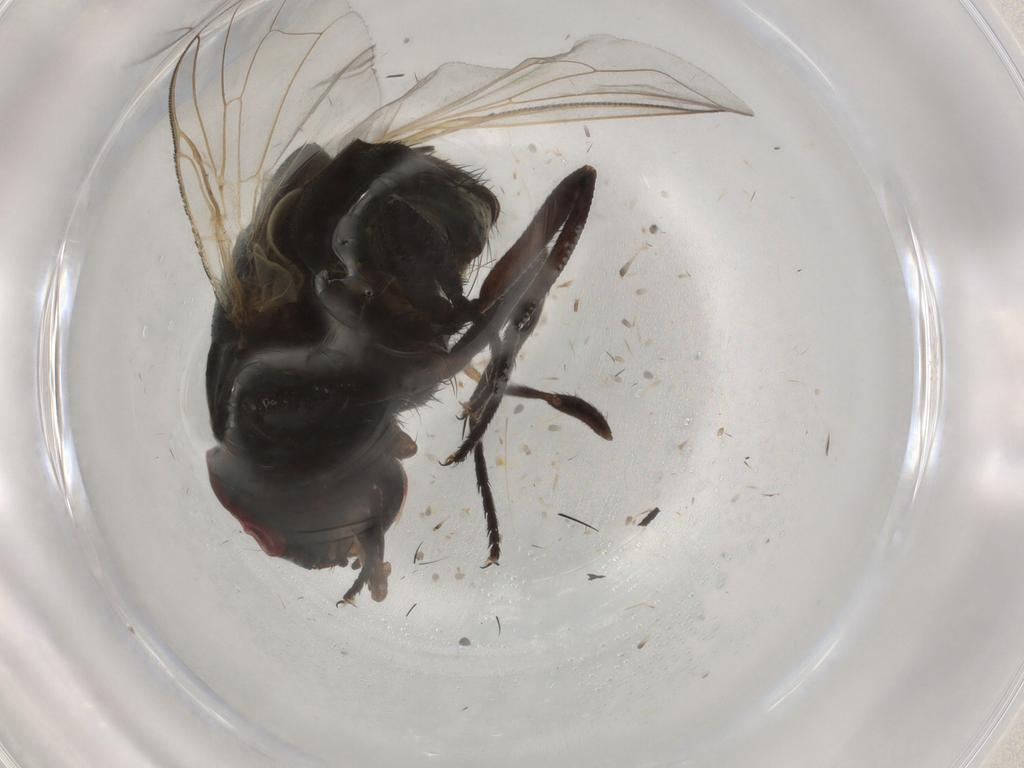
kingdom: Animalia
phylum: Arthropoda
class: Insecta
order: Diptera
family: Muscidae
